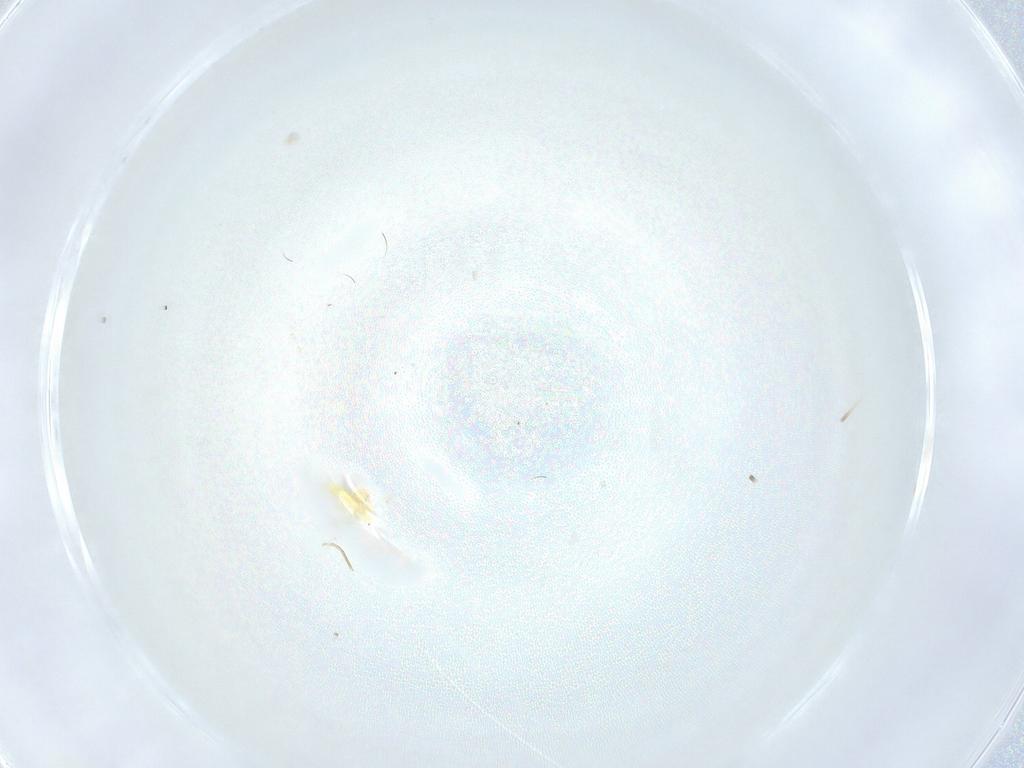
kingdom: Animalia
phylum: Arthropoda
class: Insecta
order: Neuroptera
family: Coniopterygidae
